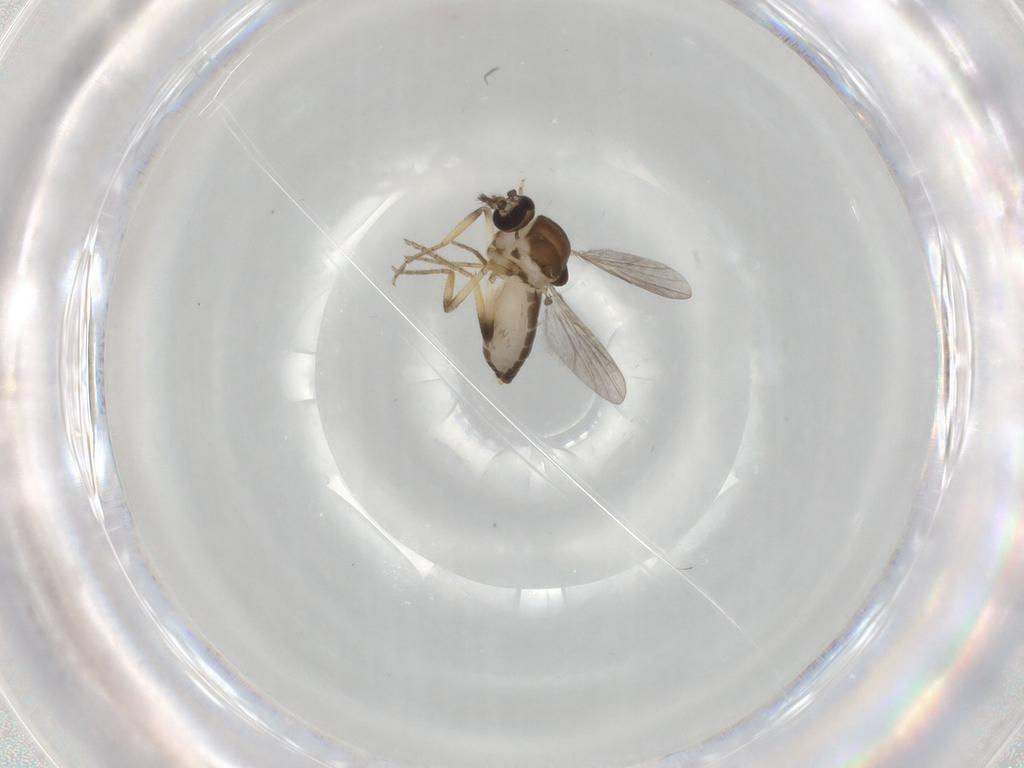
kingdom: Animalia
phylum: Arthropoda
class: Insecta
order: Diptera
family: Ceratopogonidae
